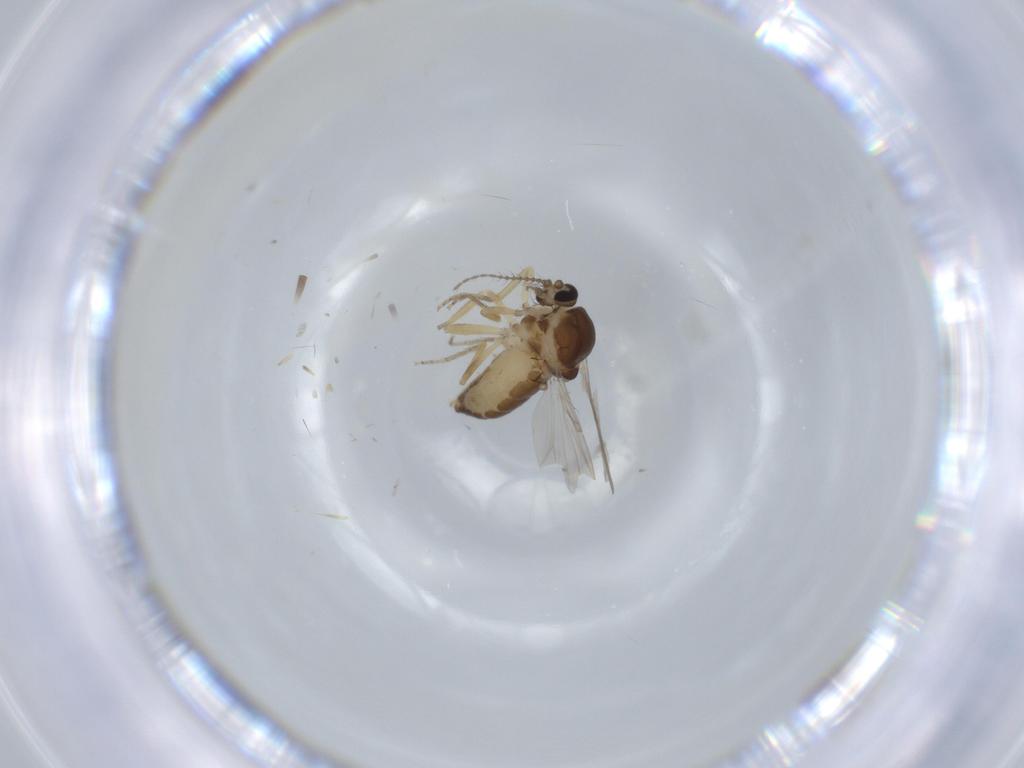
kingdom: Animalia
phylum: Arthropoda
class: Insecta
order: Diptera
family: Ceratopogonidae
